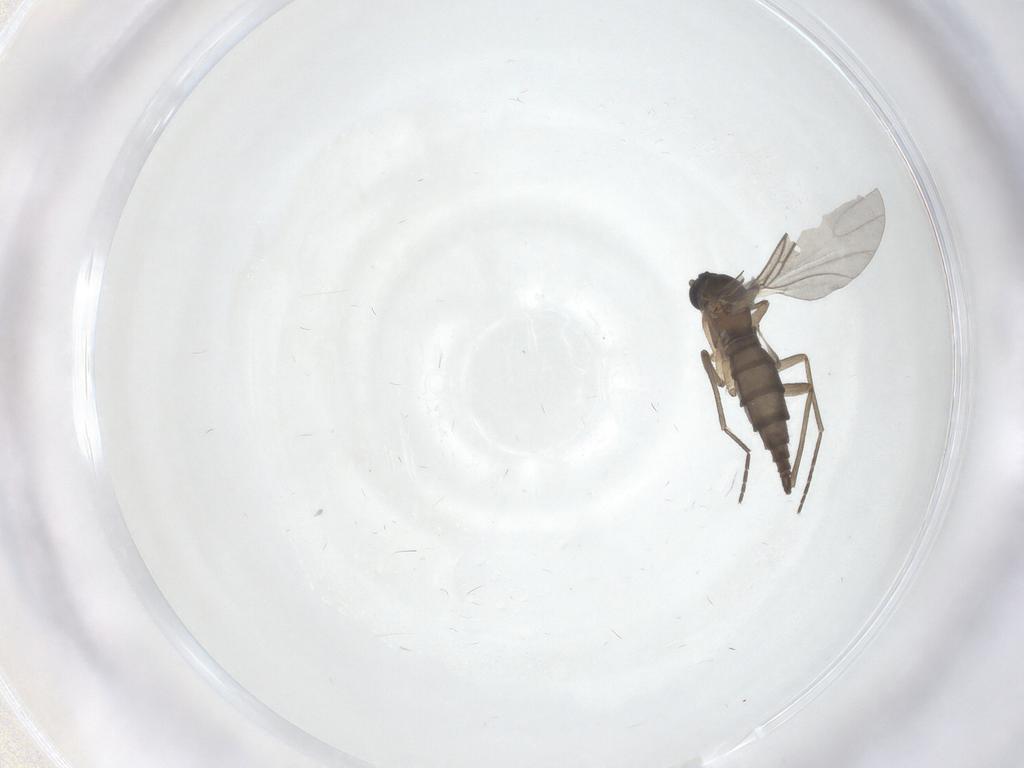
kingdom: Animalia
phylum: Arthropoda
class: Insecta
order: Diptera
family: Sciaridae
